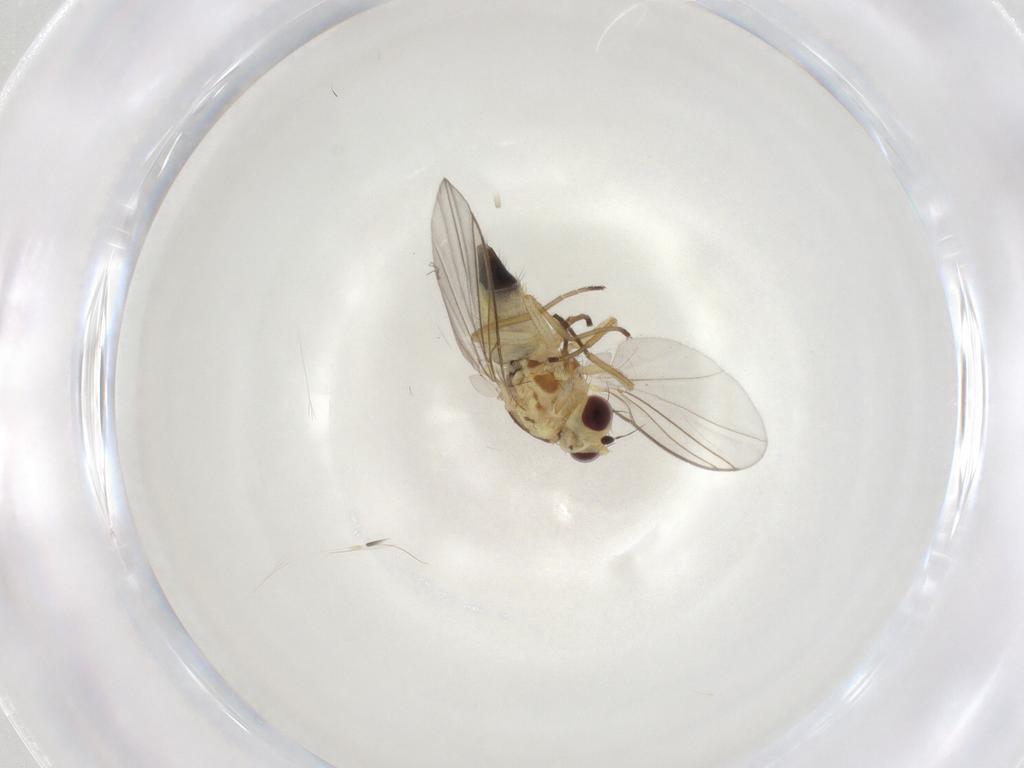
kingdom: Animalia
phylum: Arthropoda
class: Insecta
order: Diptera
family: Agromyzidae
